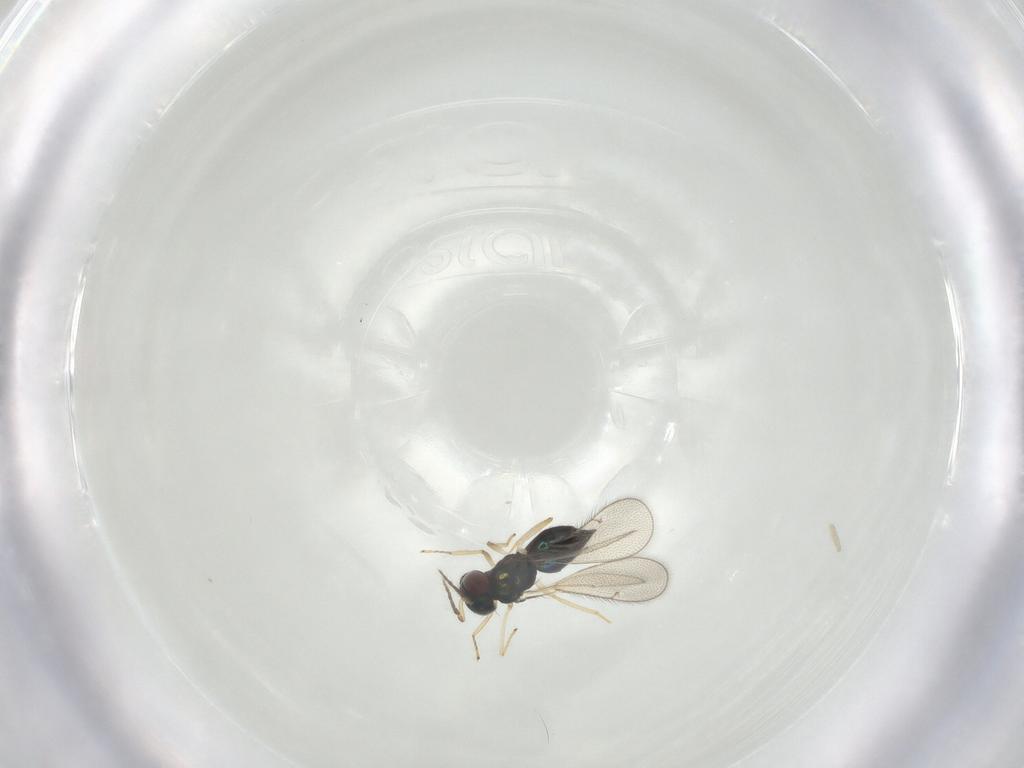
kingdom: Animalia
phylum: Arthropoda
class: Insecta
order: Hymenoptera
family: Eulophidae
